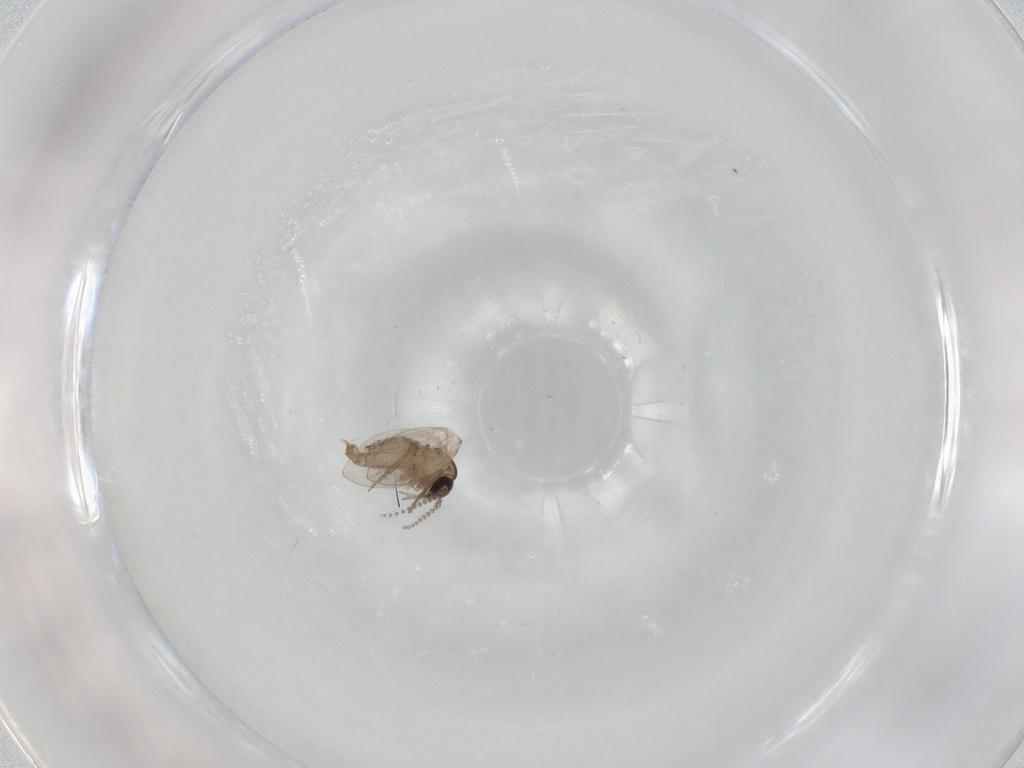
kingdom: Animalia
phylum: Arthropoda
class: Insecta
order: Diptera
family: Psychodidae
